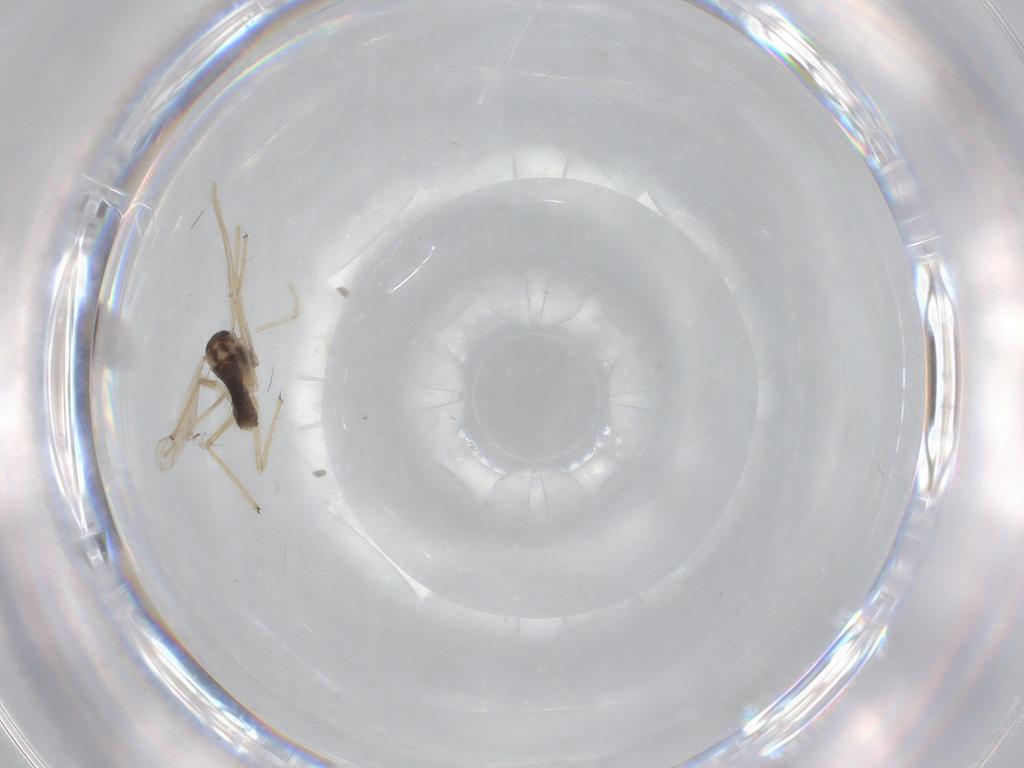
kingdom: Animalia
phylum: Arthropoda
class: Insecta
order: Diptera
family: Chironomidae
